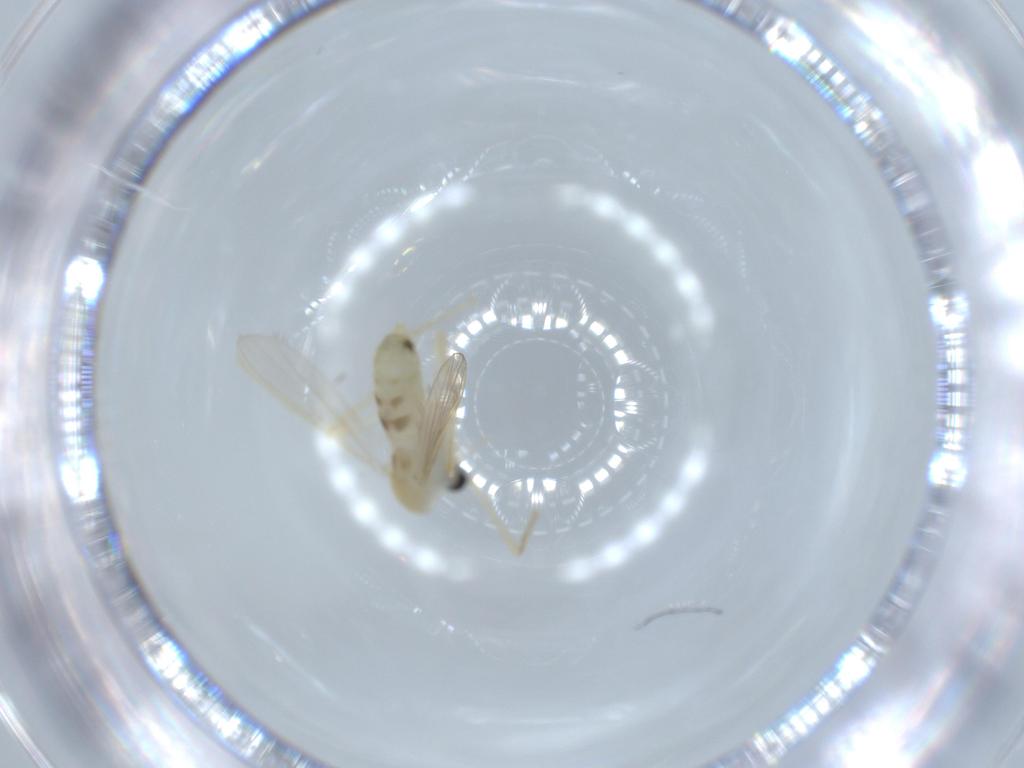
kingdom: Animalia
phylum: Arthropoda
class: Insecta
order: Diptera
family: Chironomidae
